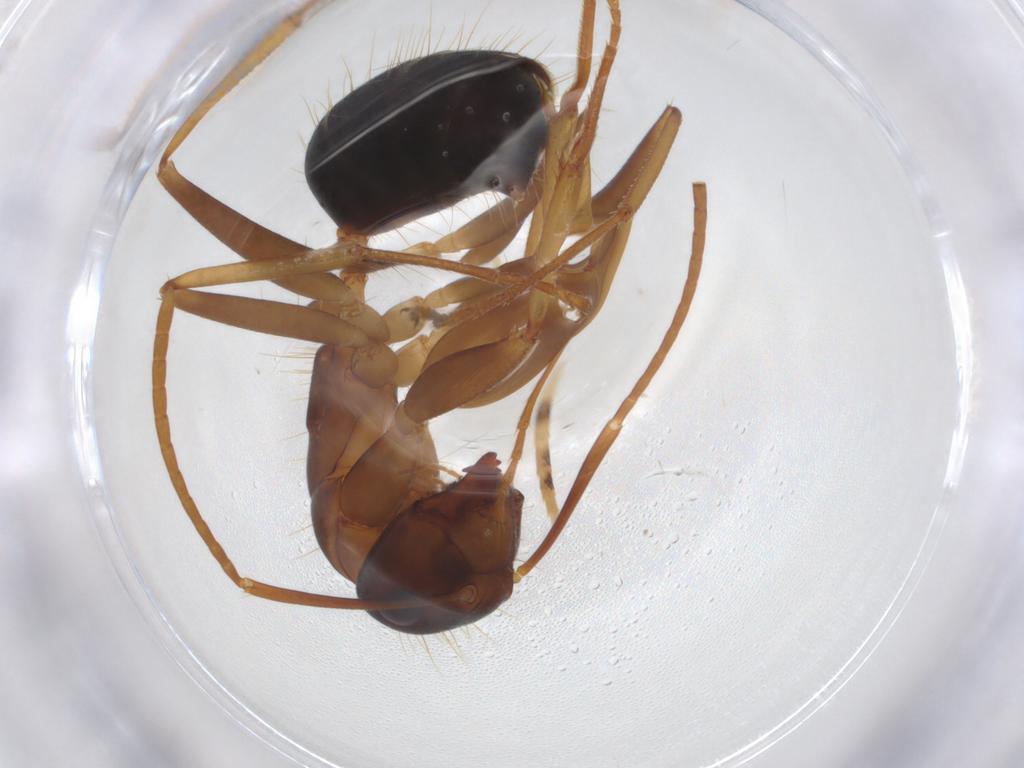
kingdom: Animalia
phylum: Arthropoda
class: Insecta
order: Hymenoptera
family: Formicidae
